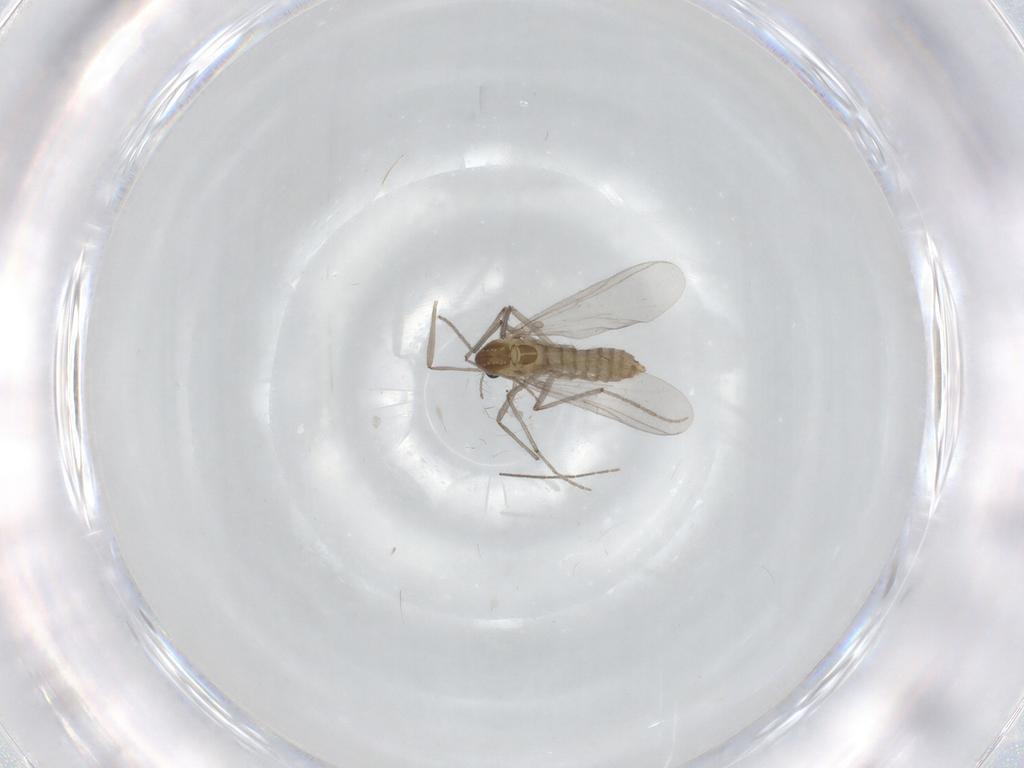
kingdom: Animalia
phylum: Arthropoda
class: Insecta
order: Diptera
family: Chironomidae
